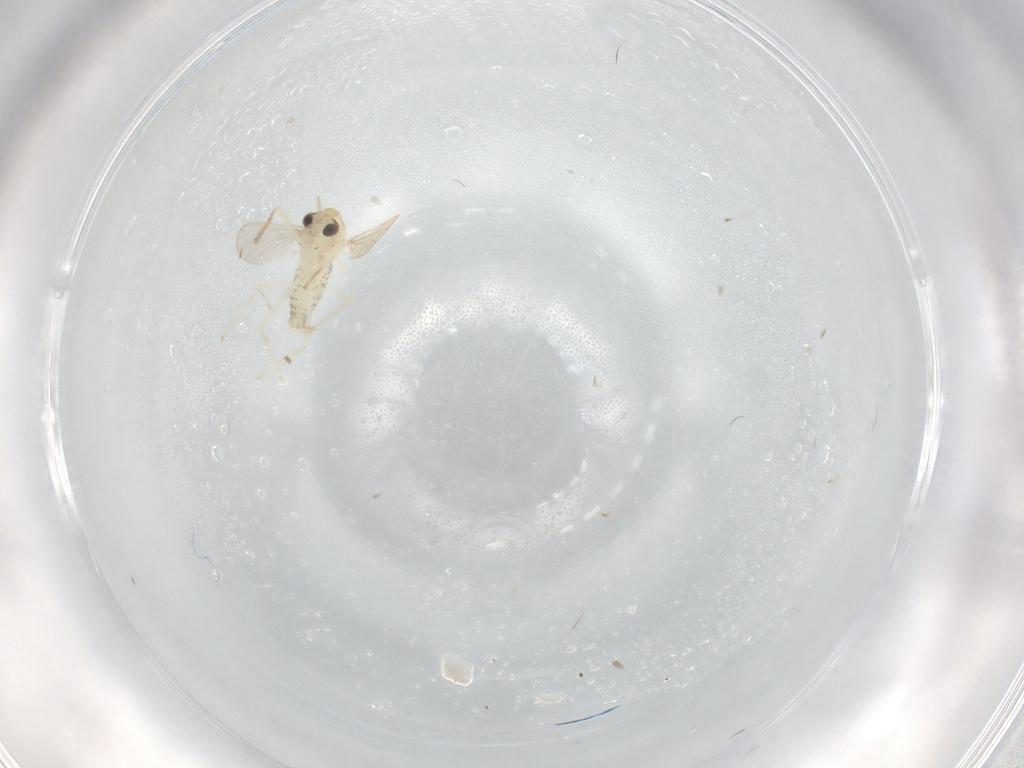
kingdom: Animalia
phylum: Arthropoda
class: Insecta
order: Diptera
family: Chironomidae
